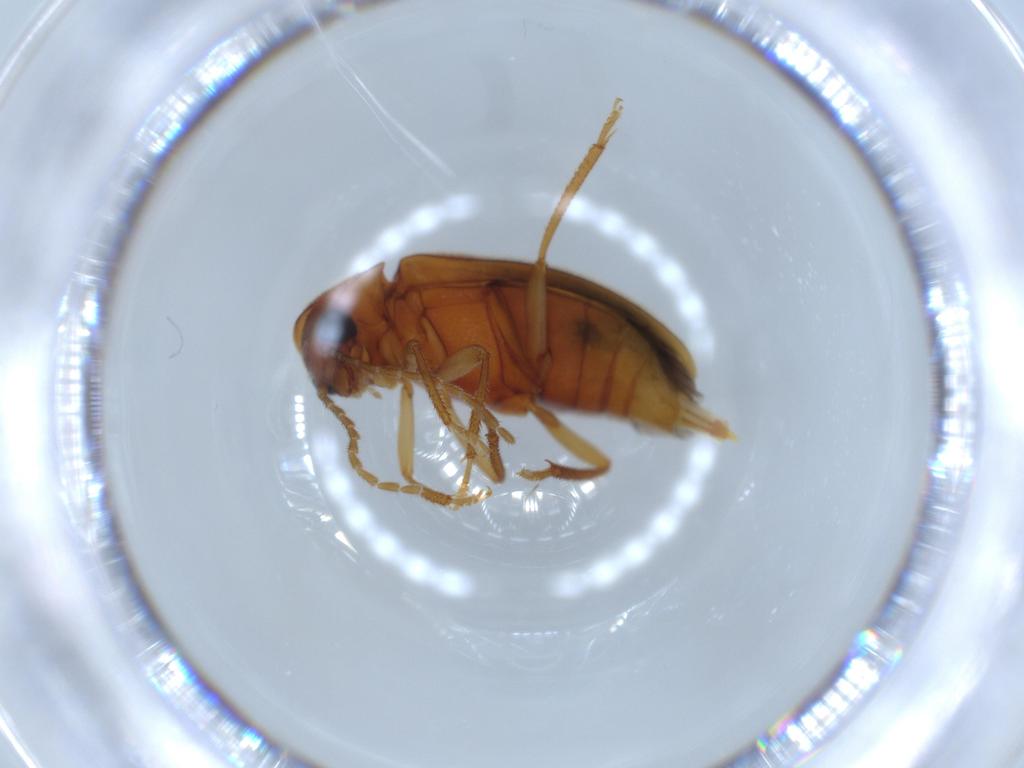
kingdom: Animalia
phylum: Arthropoda
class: Insecta
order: Coleoptera
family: Ptilodactylidae
